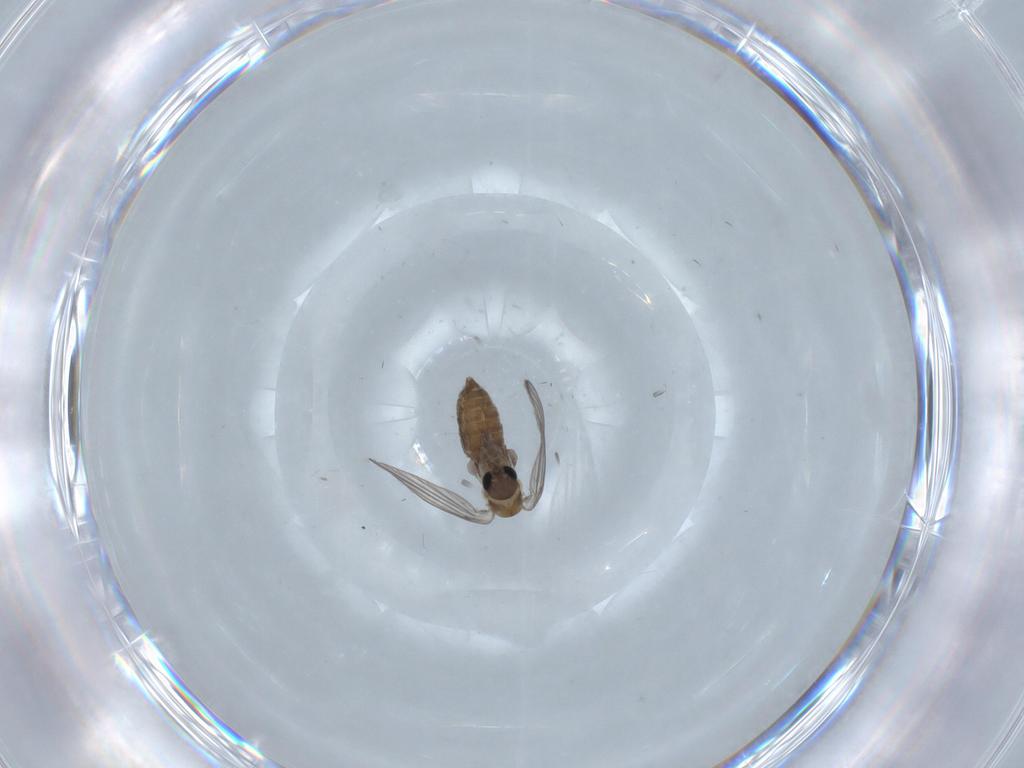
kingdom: Animalia
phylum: Arthropoda
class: Insecta
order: Diptera
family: Psychodidae
